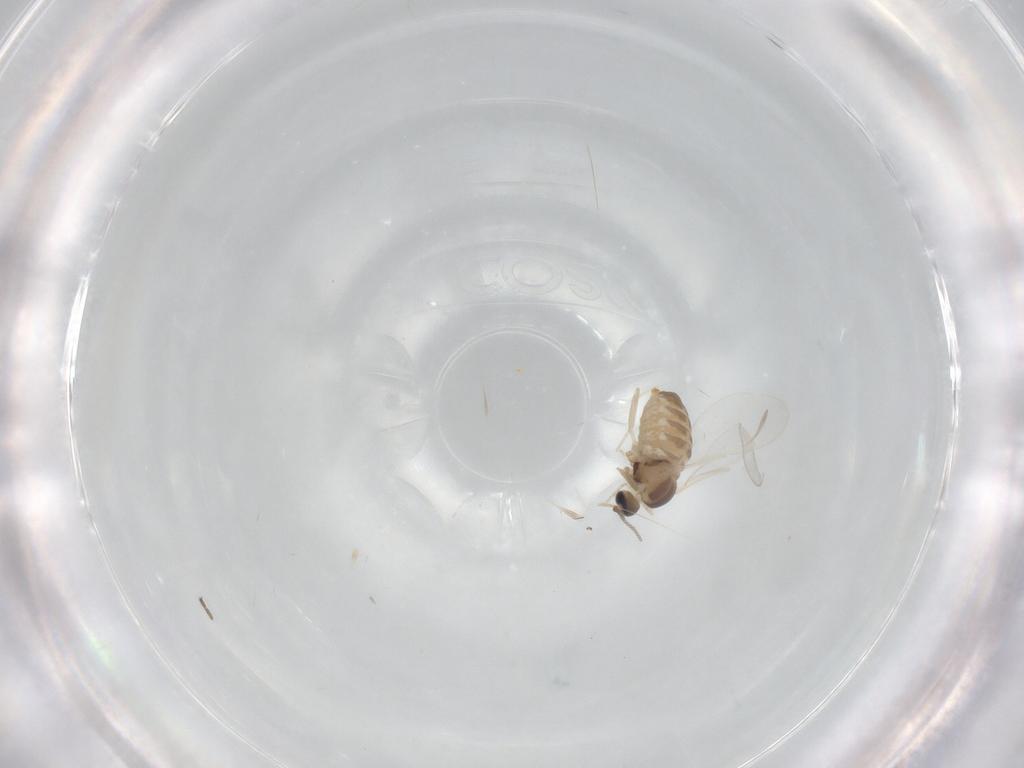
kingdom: Animalia
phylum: Arthropoda
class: Insecta
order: Diptera
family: Cecidomyiidae
